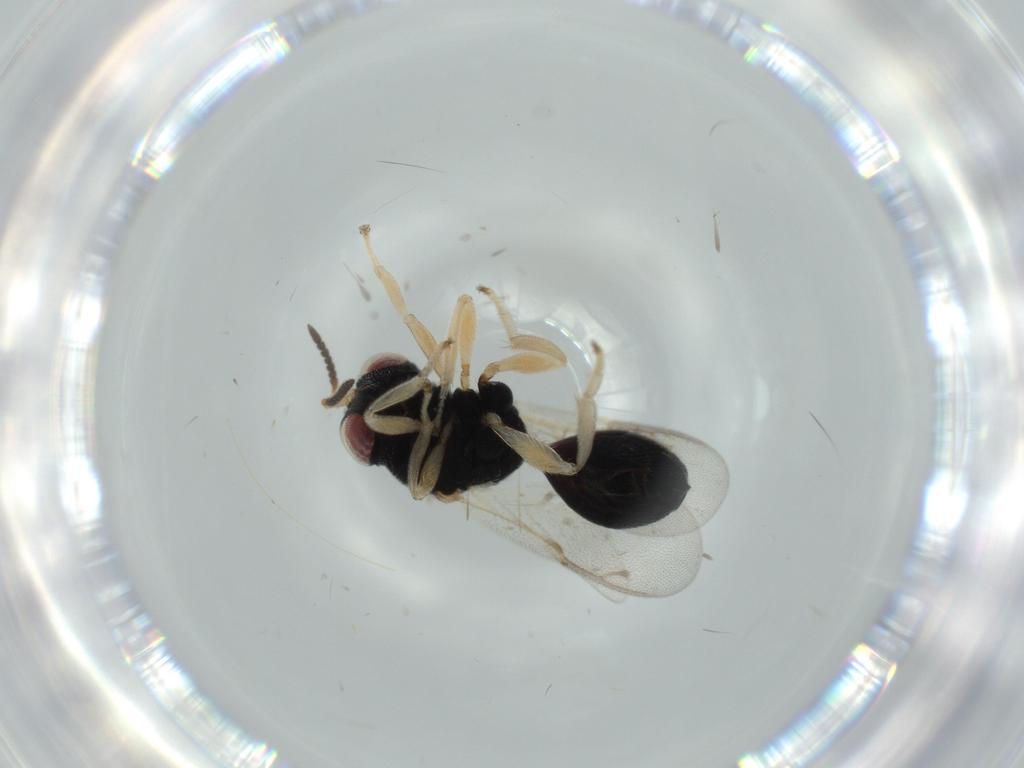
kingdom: Animalia
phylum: Arthropoda
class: Insecta
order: Hymenoptera
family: Eurytomidae
